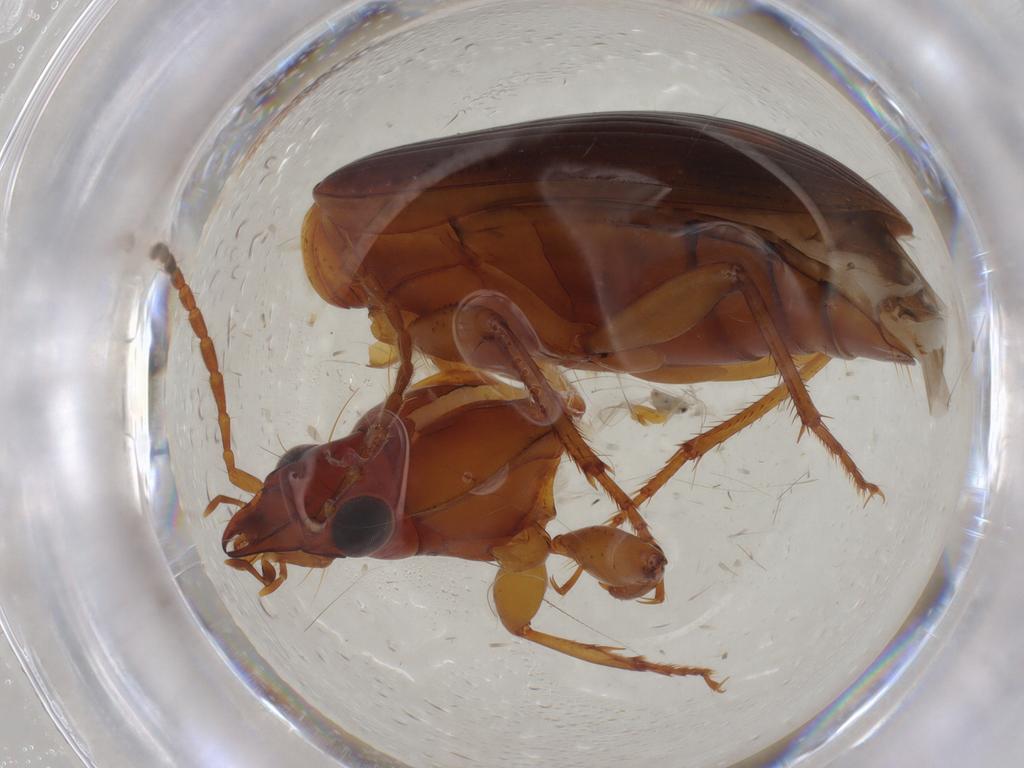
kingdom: Animalia
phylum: Arthropoda
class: Insecta
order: Coleoptera
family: Carabidae
